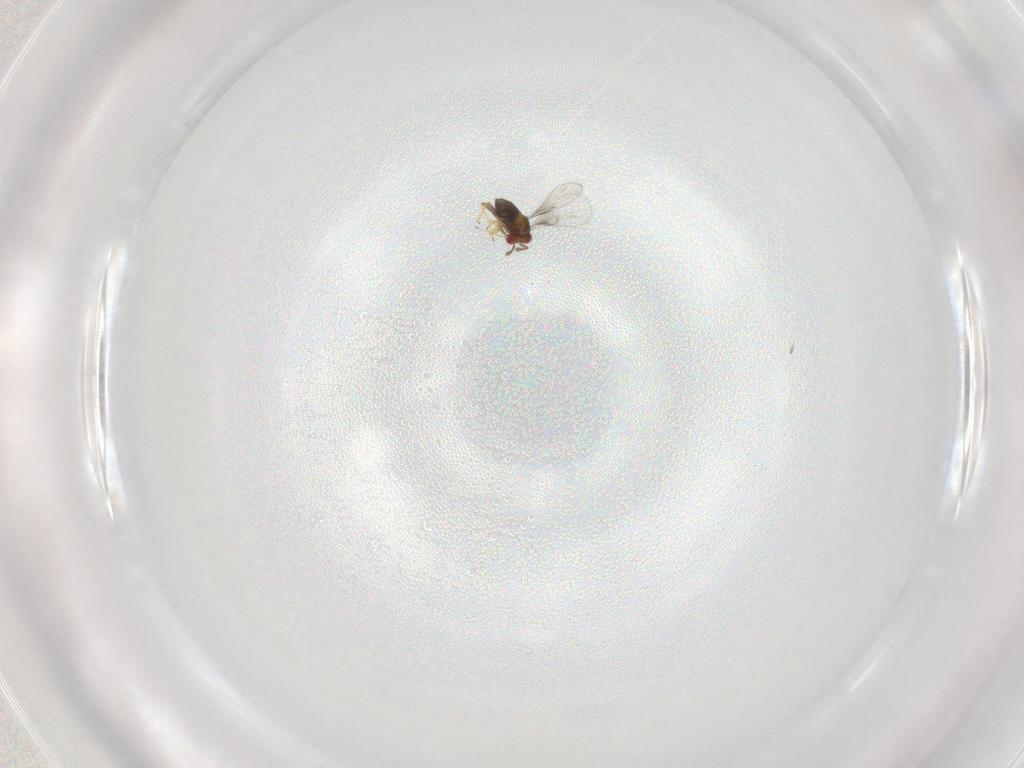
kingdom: Animalia
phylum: Arthropoda
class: Insecta
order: Hymenoptera
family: Trichogrammatidae
